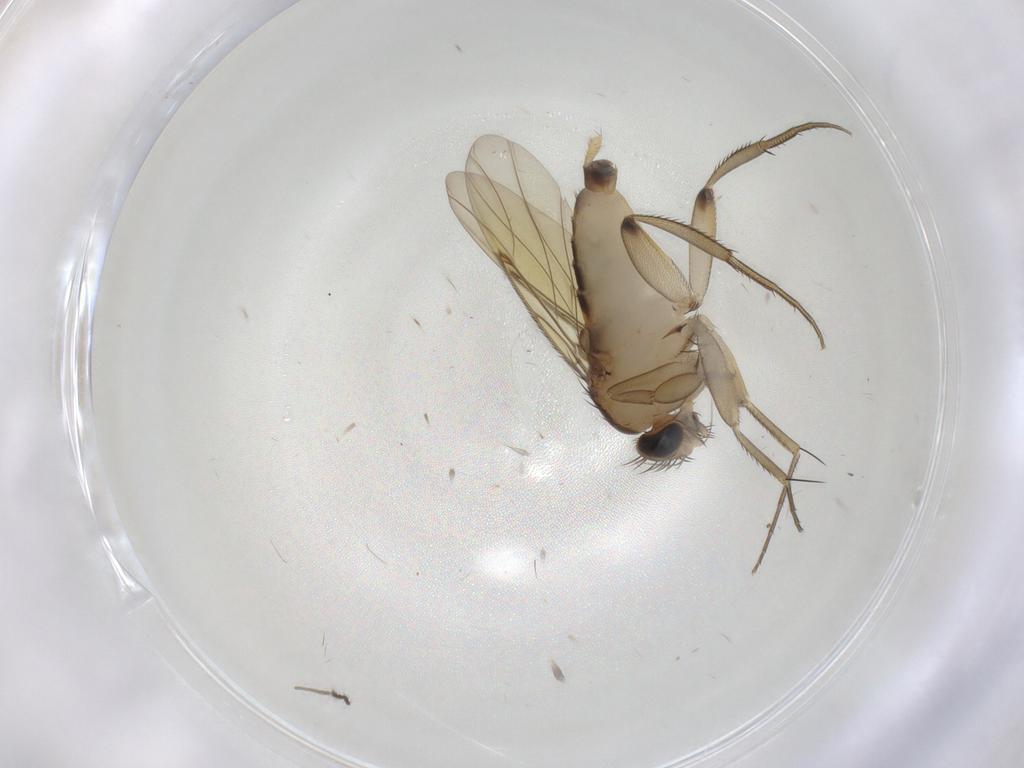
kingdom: Animalia
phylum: Arthropoda
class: Insecta
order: Diptera
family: Phoridae
